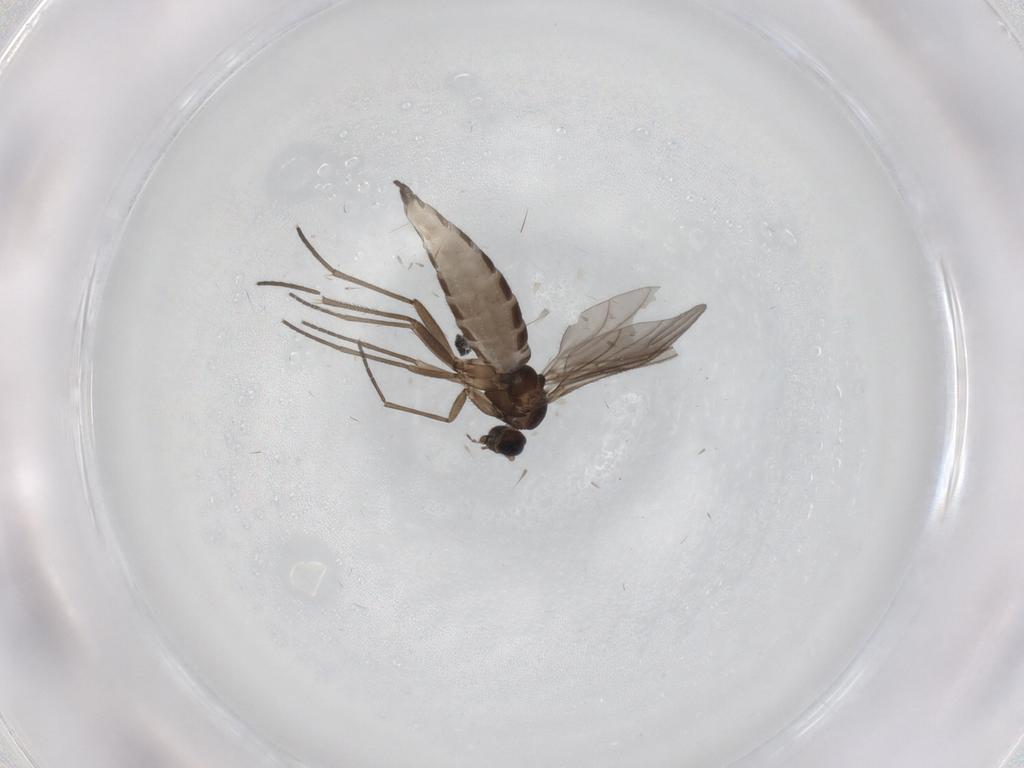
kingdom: Animalia
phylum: Arthropoda
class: Insecta
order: Diptera
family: Sciaridae
